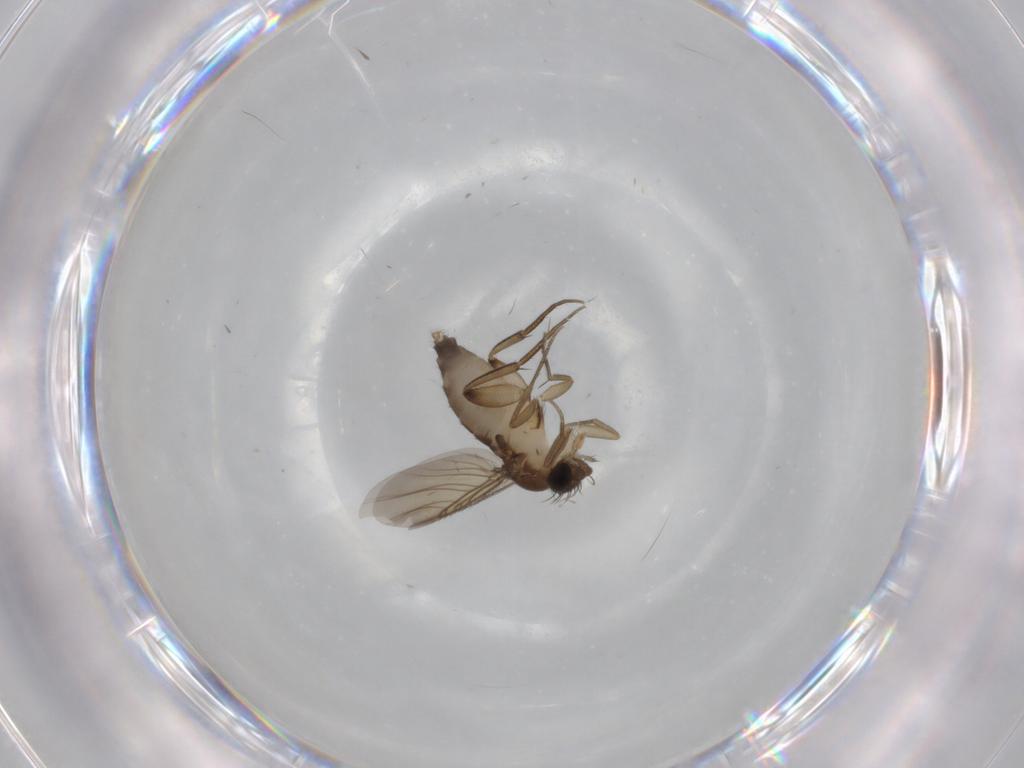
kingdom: Animalia
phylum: Arthropoda
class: Insecta
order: Diptera
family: Phoridae
